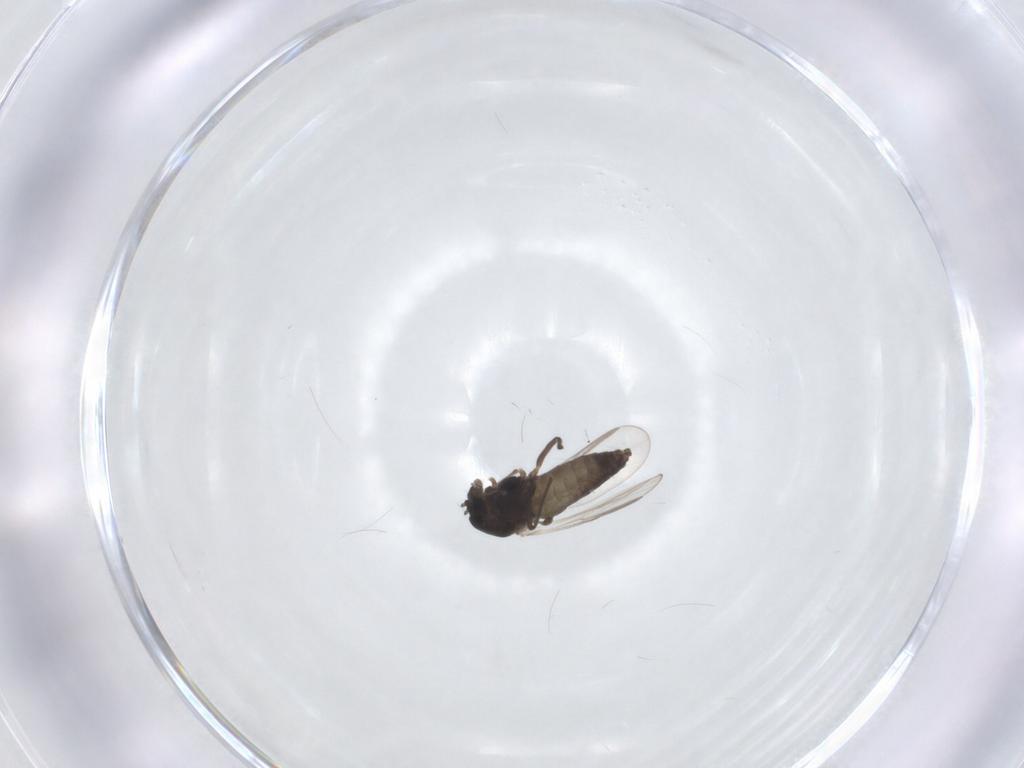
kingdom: Animalia
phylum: Arthropoda
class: Insecta
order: Diptera
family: Chironomidae
